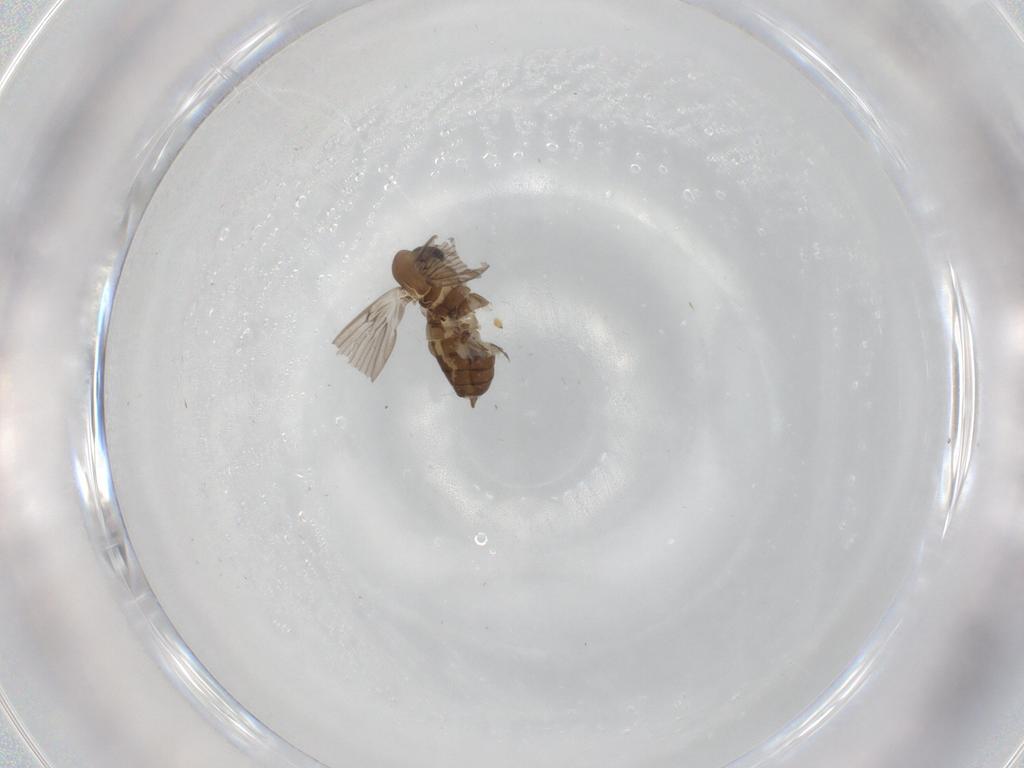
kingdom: Animalia
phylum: Arthropoda
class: Insecta
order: Diptera
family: Psychodidae
